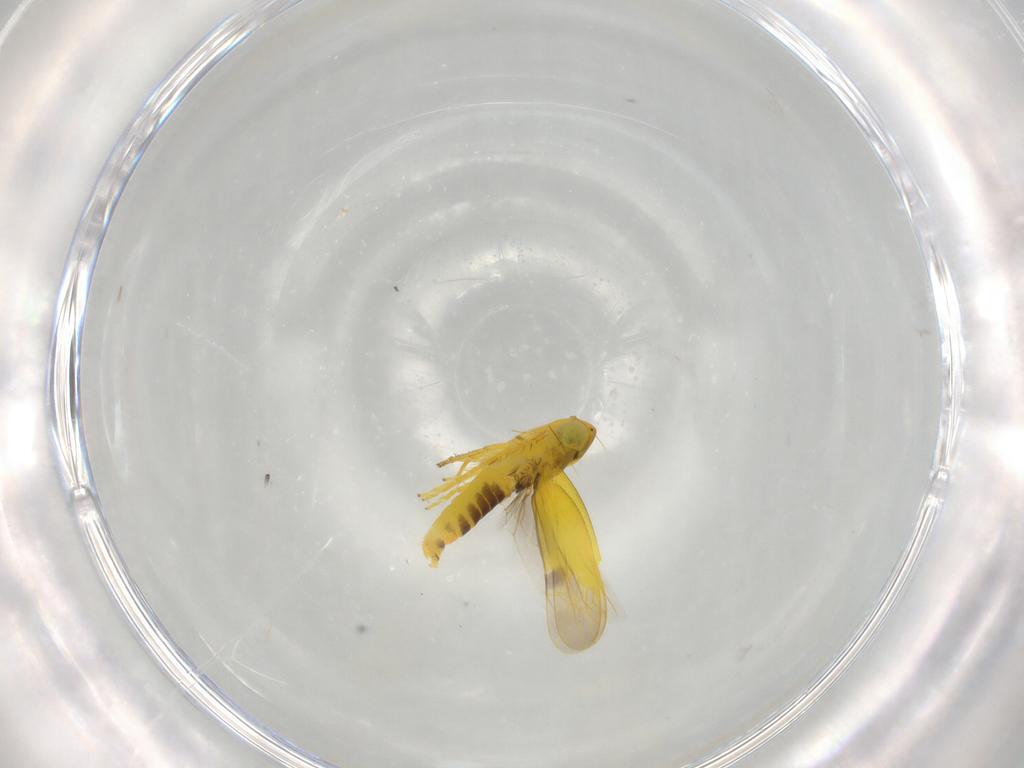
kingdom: Animalia
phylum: Arthropoda
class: Insecta
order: Hemiptera
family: Cicadellidae
